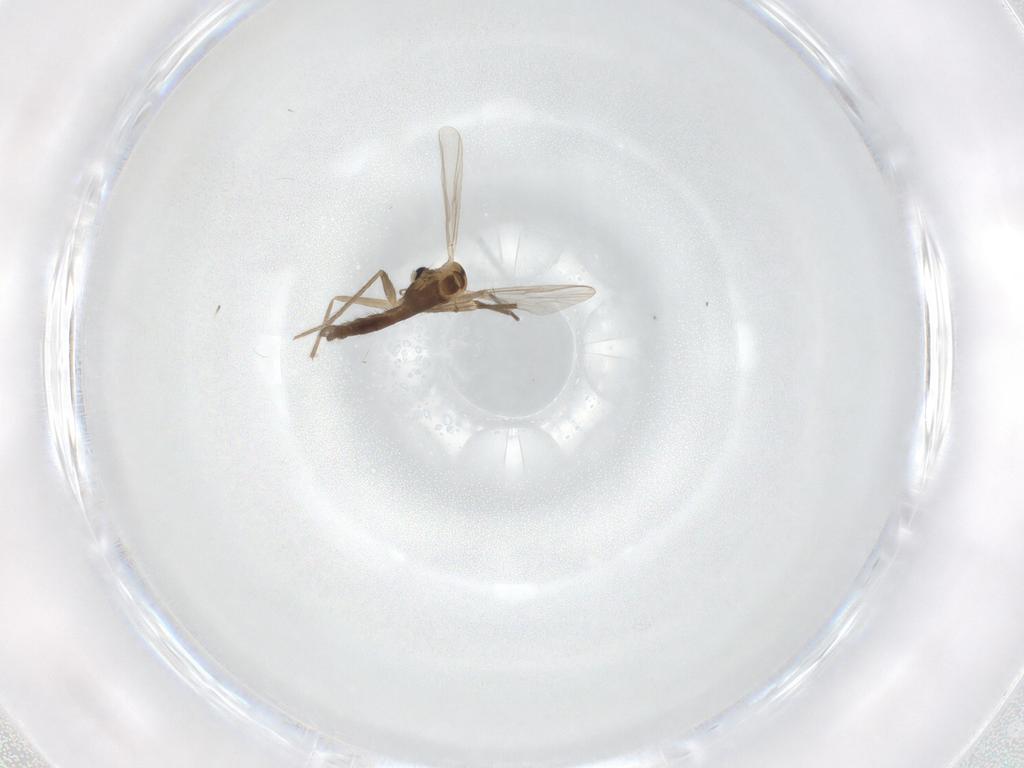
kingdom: Animalia
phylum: Arthropoda
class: Insecta
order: Diptera
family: Chironomidae
